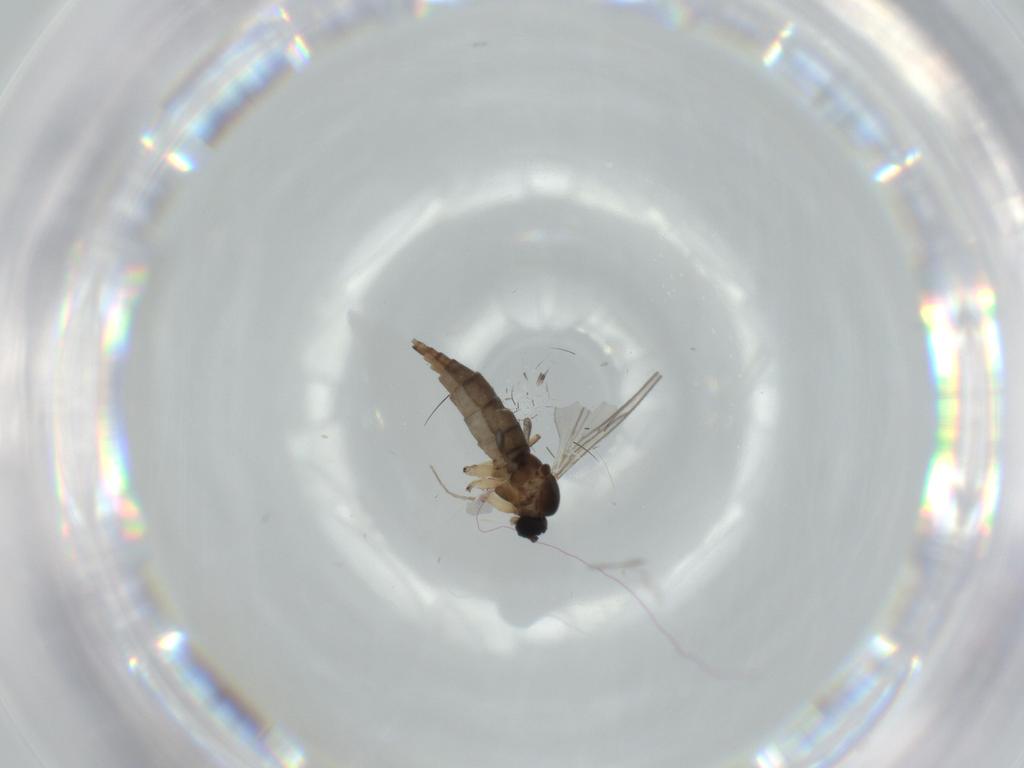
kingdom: Animalia
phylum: Arthropoda
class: Insecta
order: Diptera
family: Sciaridae
